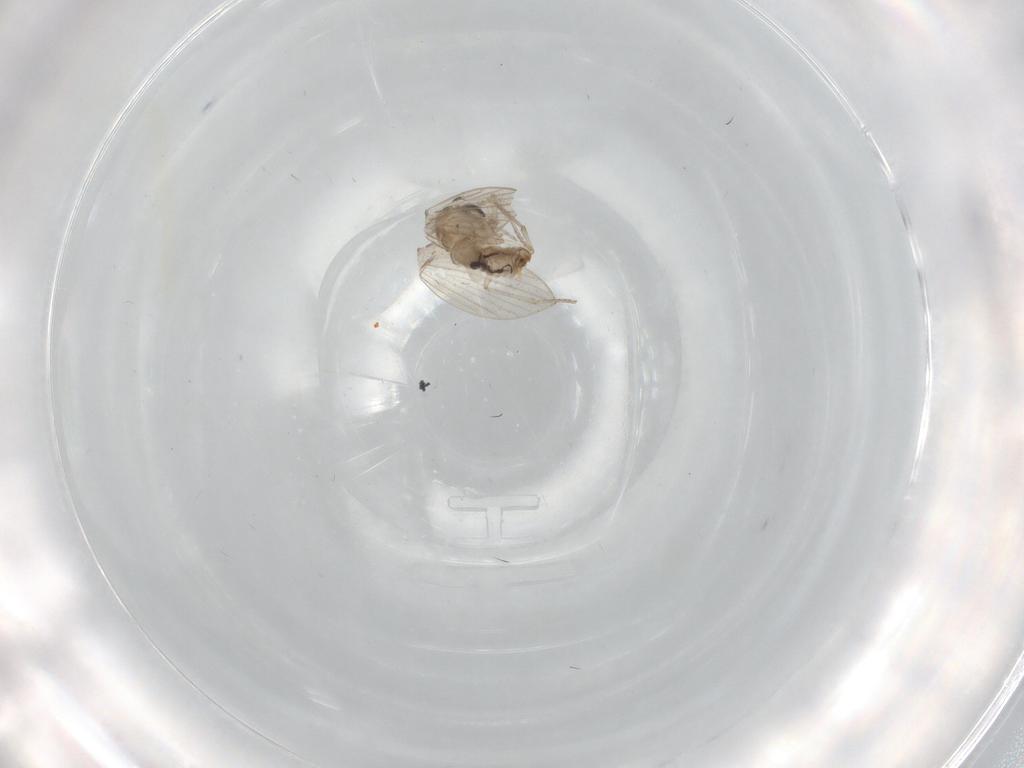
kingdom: Animalia
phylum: Arthropoda
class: Insecta
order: Diptera
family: Psychodidae
